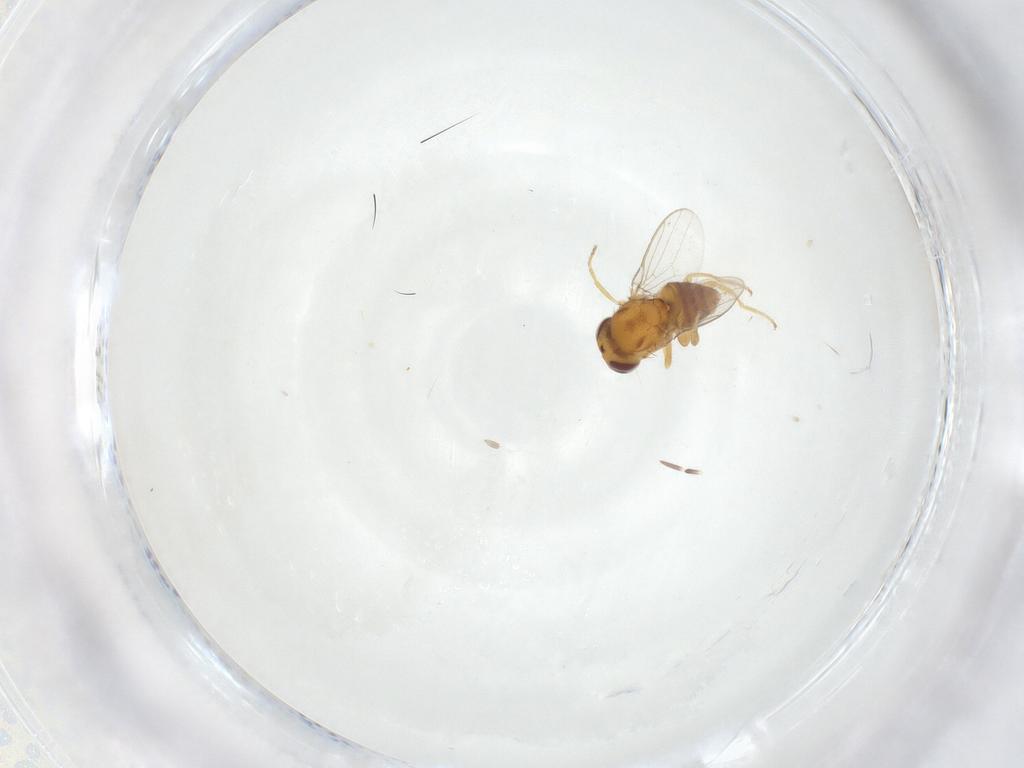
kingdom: Animalia
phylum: Arthropoda
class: Insecta
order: Diptera
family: Chloropidae
